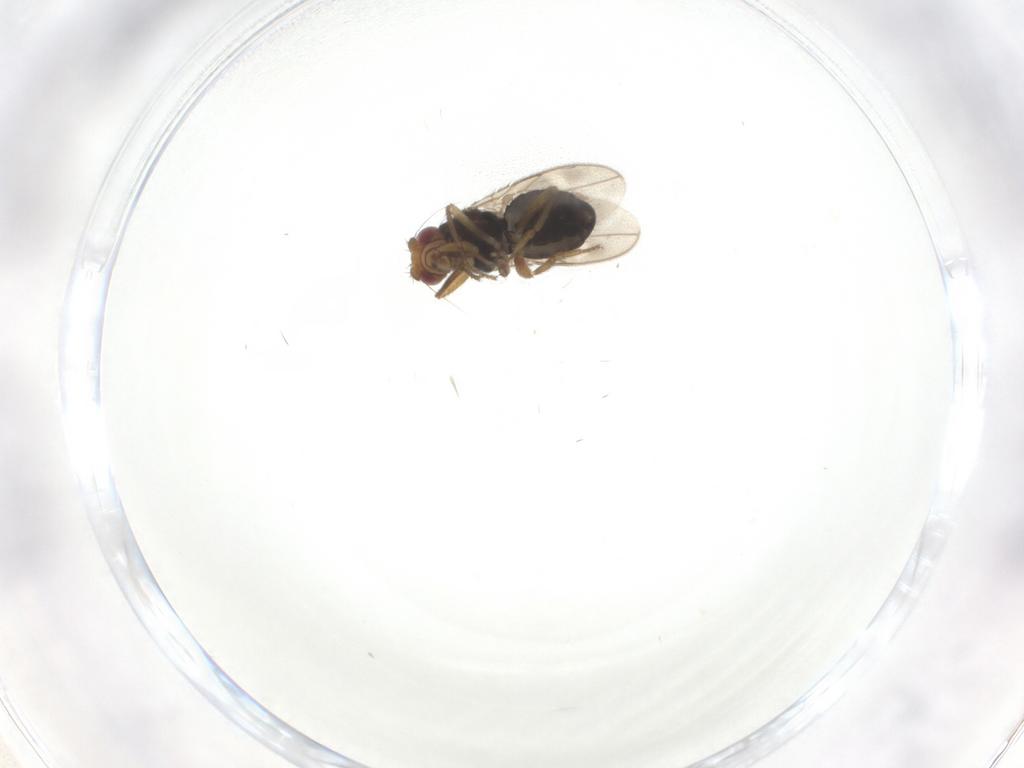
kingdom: Animalia
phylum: Arthropoda
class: Insecta
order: Diptera
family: Sphaeroceridae
